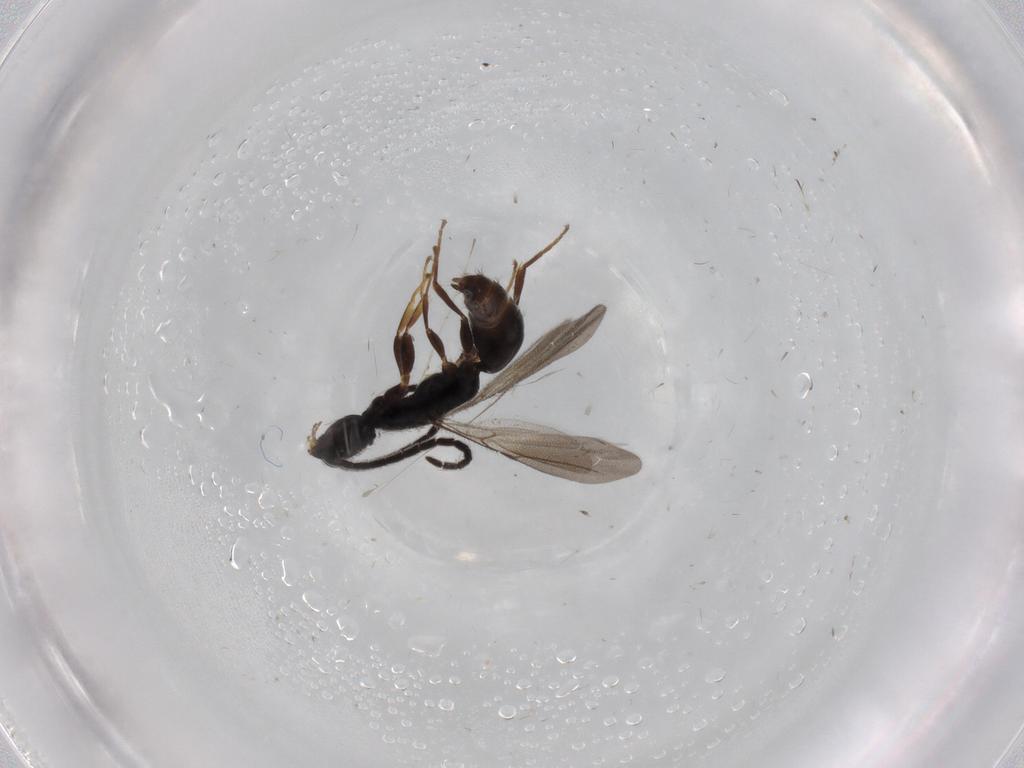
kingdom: Animalia
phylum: Arthropoda
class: Insecta
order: Hymenoptera
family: Bethylidae
